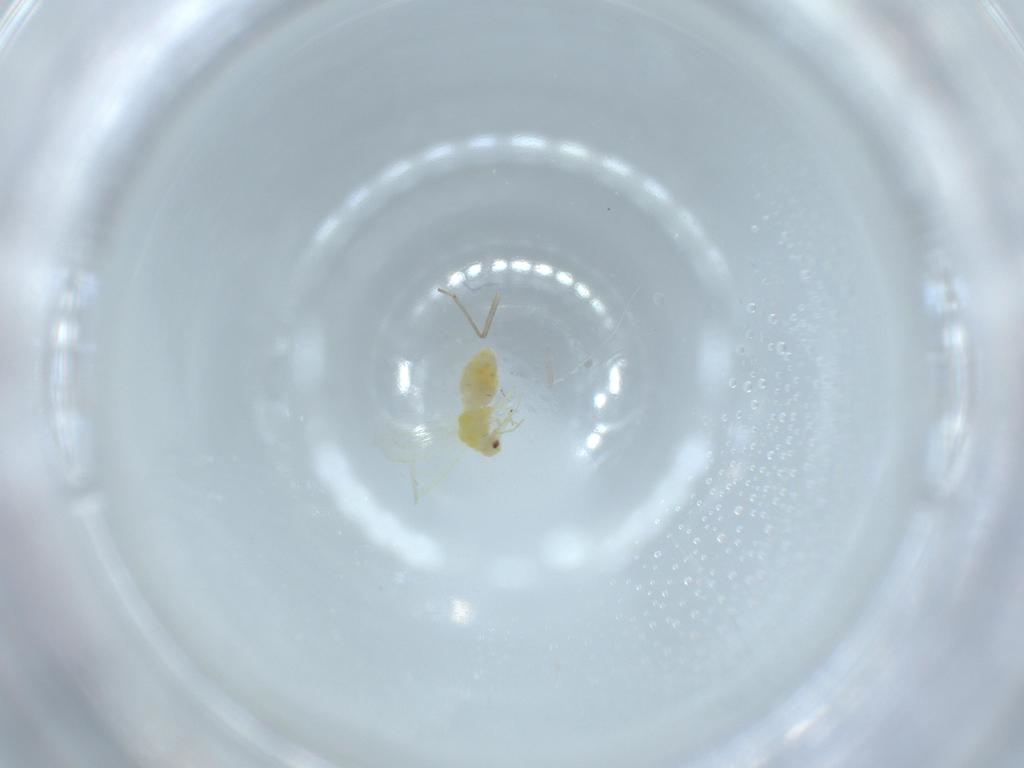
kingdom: Animalia
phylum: Arthropoda
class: Insecta
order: Hemiptera
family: Aleyrodidae
